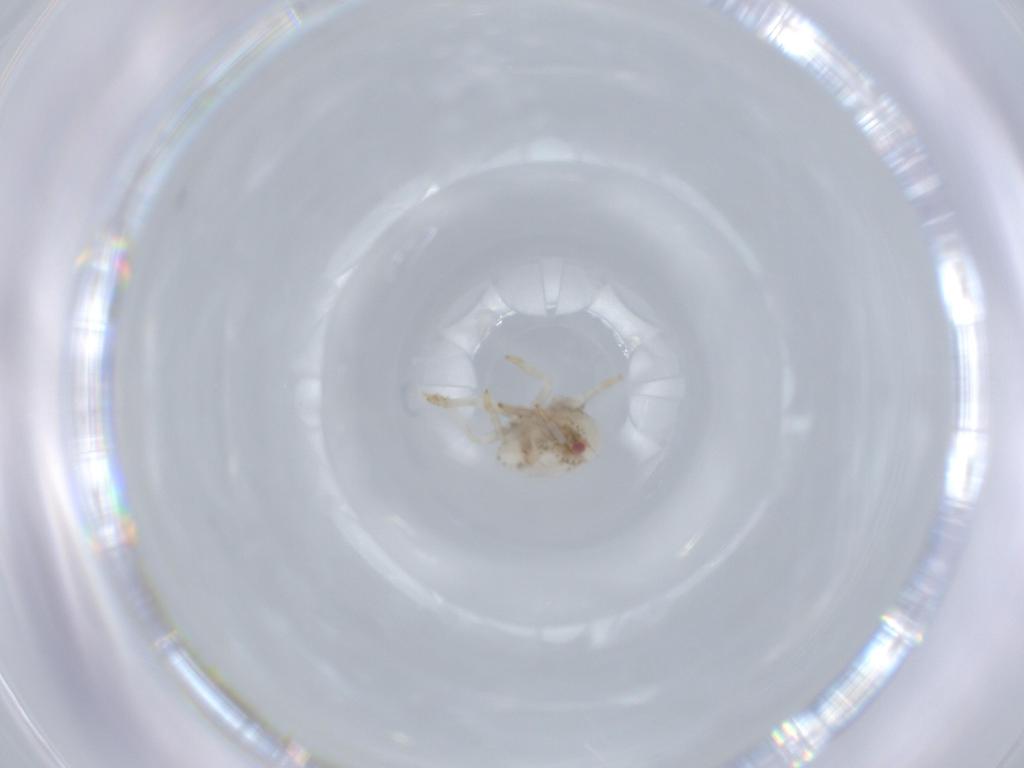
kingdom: Animalia
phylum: Arthropoda
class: Insecta
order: Hemiptera
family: Acanaloniidae
